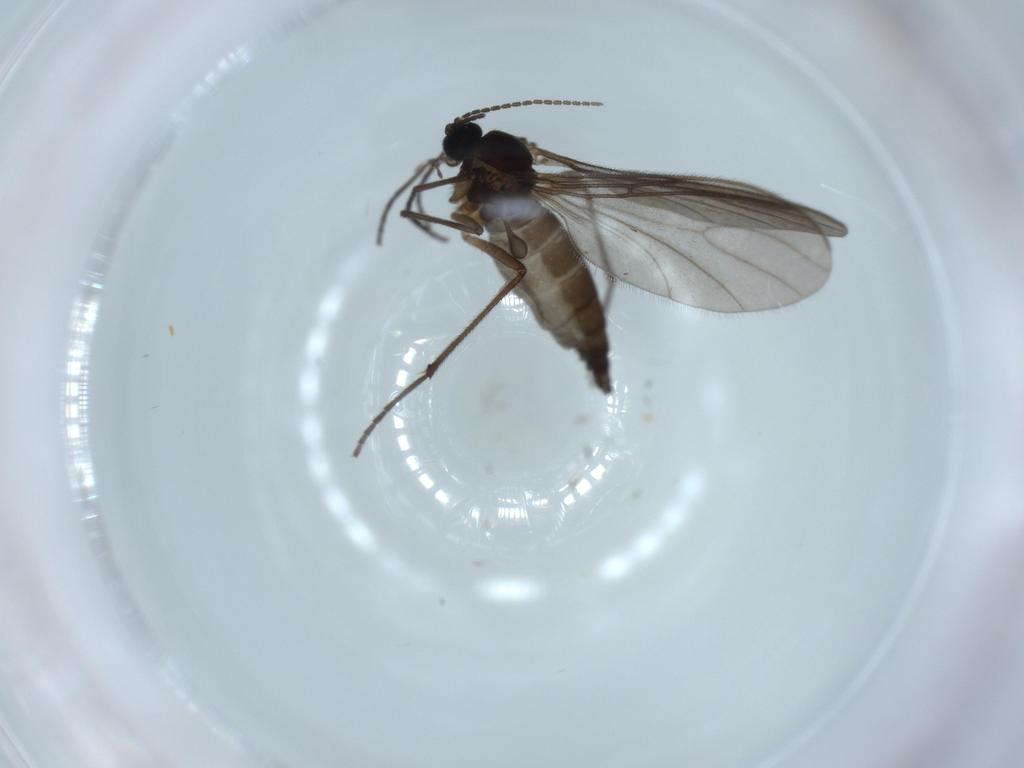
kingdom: Animalia
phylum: Arthropoda
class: Insecta
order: Diptera
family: Sciaridae
